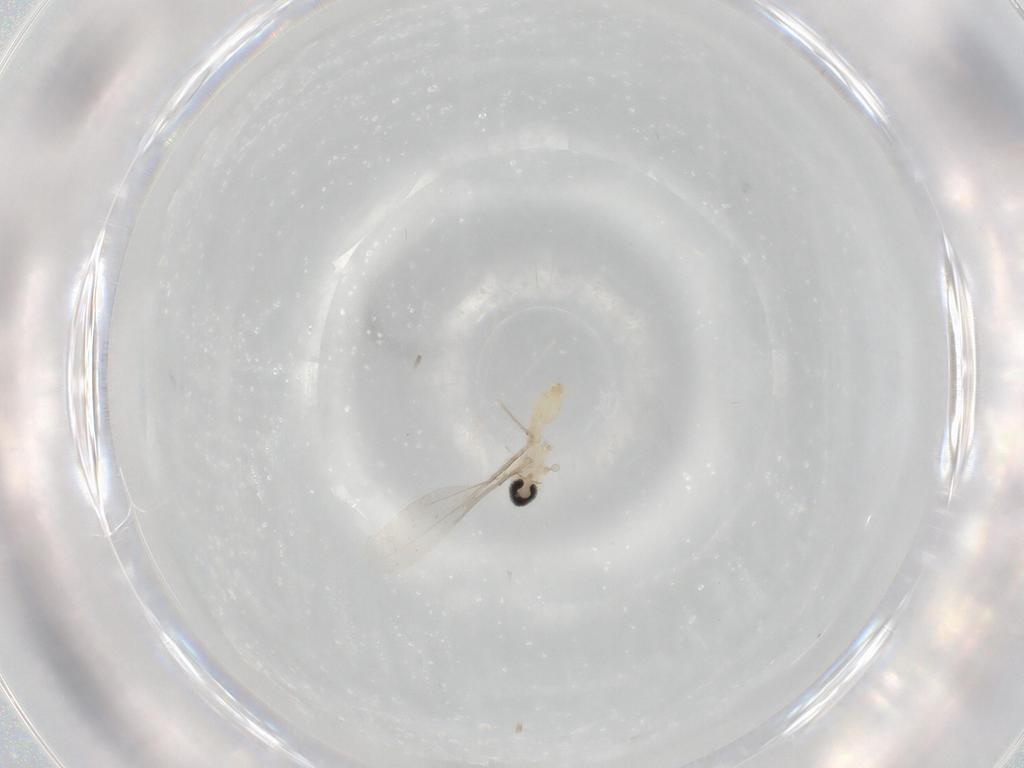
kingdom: Animalia
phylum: Arthropoda
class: Insecta
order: Diptera
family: Cecidomyiidae
